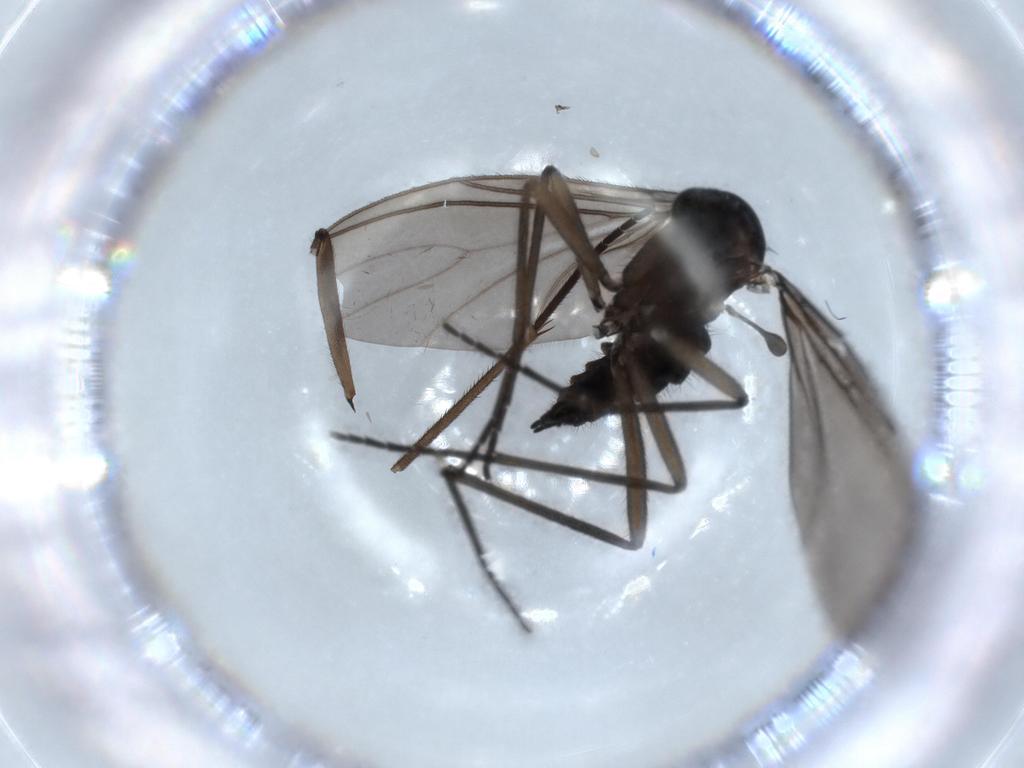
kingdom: Animalia
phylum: Arthropoda
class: Insecta
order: Diptera
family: Sciaridae
